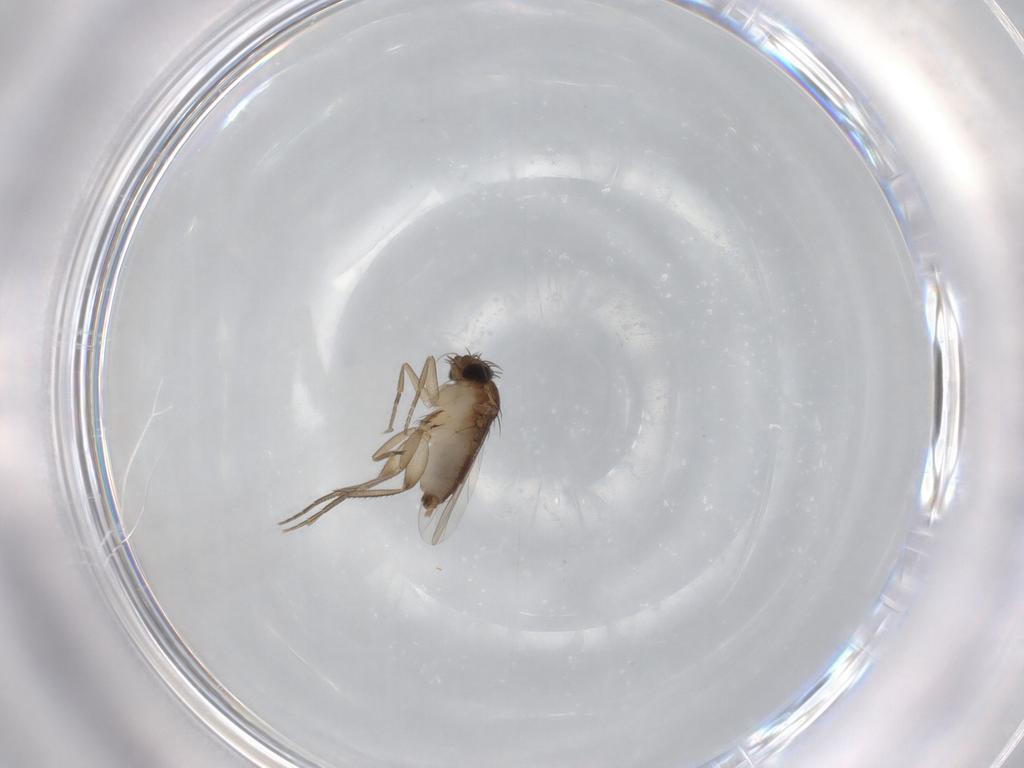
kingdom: Animalia
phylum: Arthropoda
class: Insecta
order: Diptera
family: Phoridae
